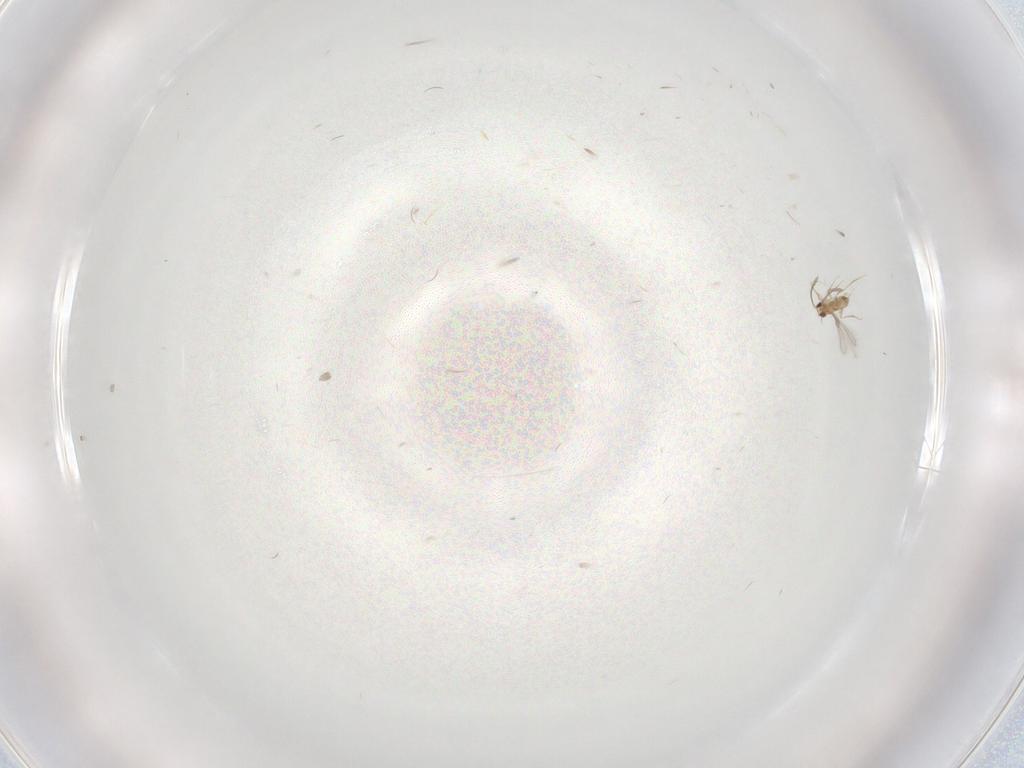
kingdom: Animalia
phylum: Arthropoda
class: Insecta
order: Hymenoptera
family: Mymaridae
